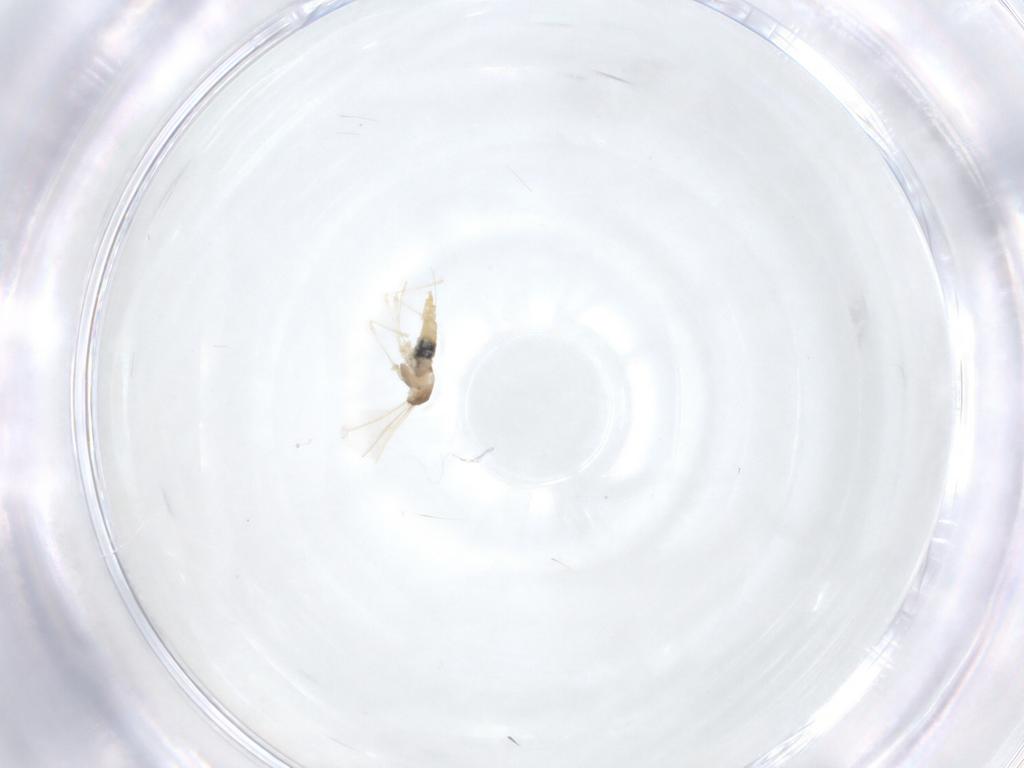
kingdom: Animalia
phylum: Arthropoda
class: Insecta
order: Diptera
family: Cecidomyiidae
